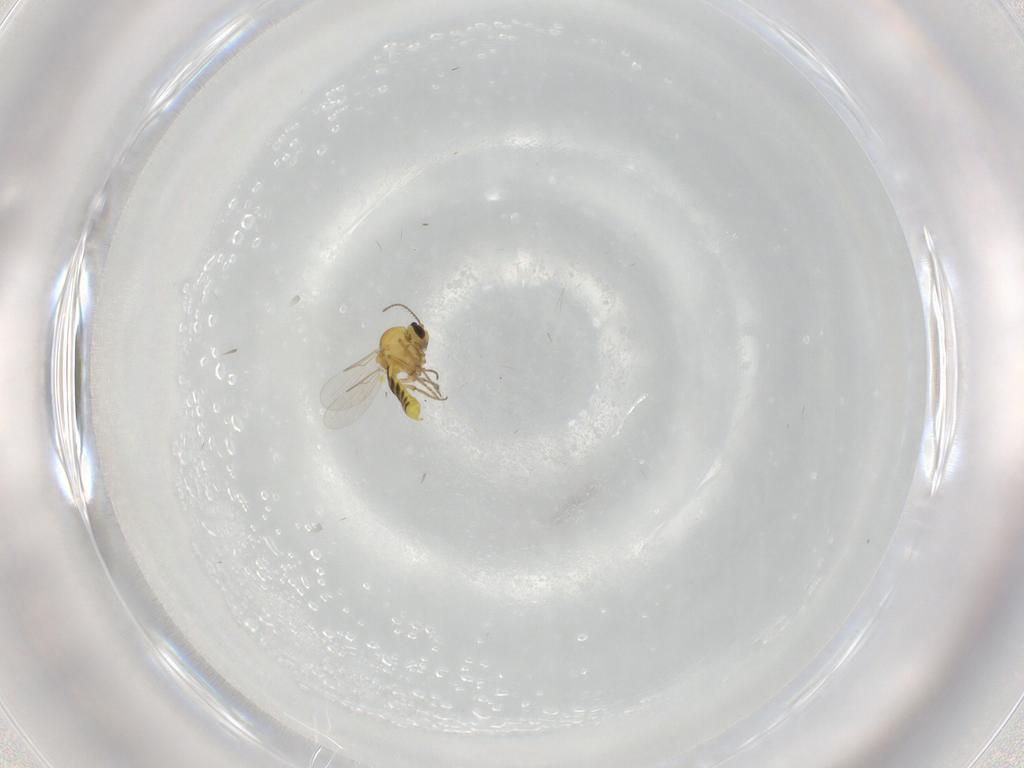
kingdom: Animalia
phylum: Arthropoda
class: Insecta
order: Diptera
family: Ceratopogonidae
